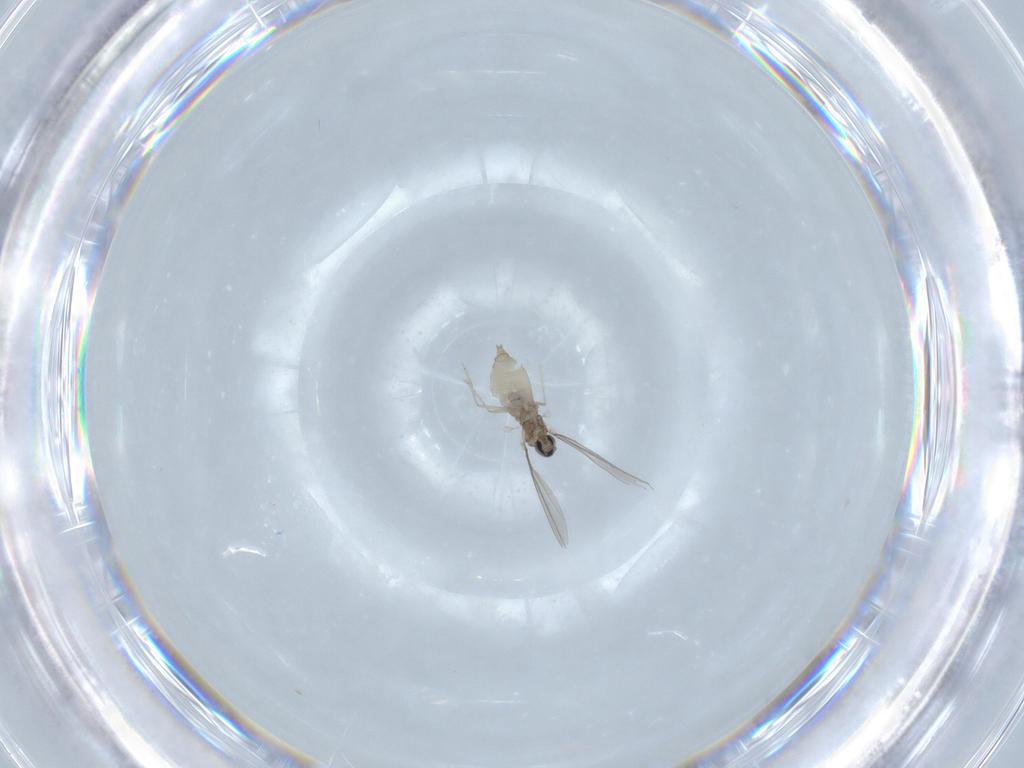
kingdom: Animalia
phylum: Arthropoda
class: Insecta
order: Diptera
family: Cecidomyiidae
